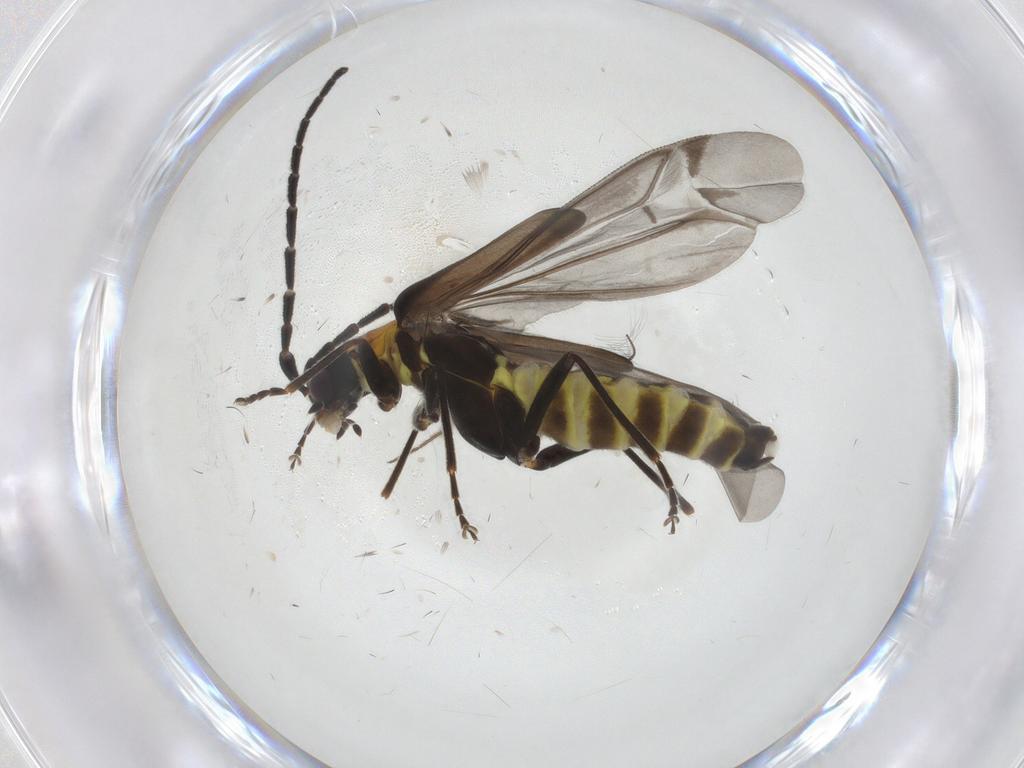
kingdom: Animalia
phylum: Arthropoda
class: Insecta
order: Coleoptera
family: Cantharidae
